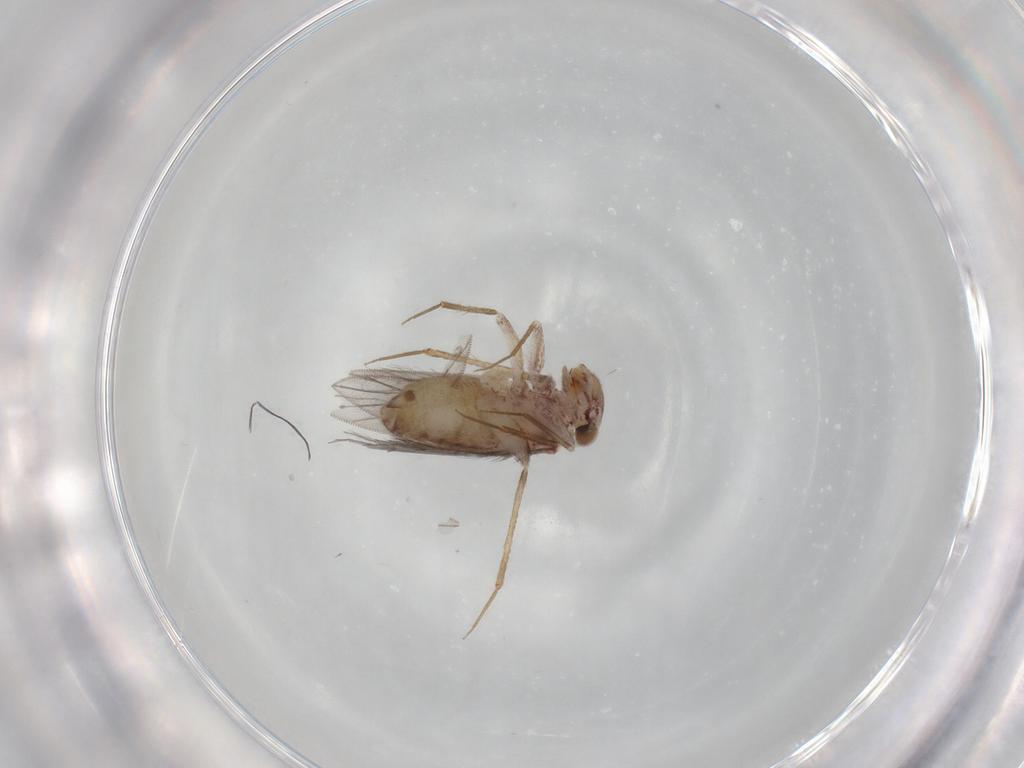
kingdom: Animalia
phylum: Arthropoda
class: Insecta
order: Psocodea
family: Lepidopsocidae
